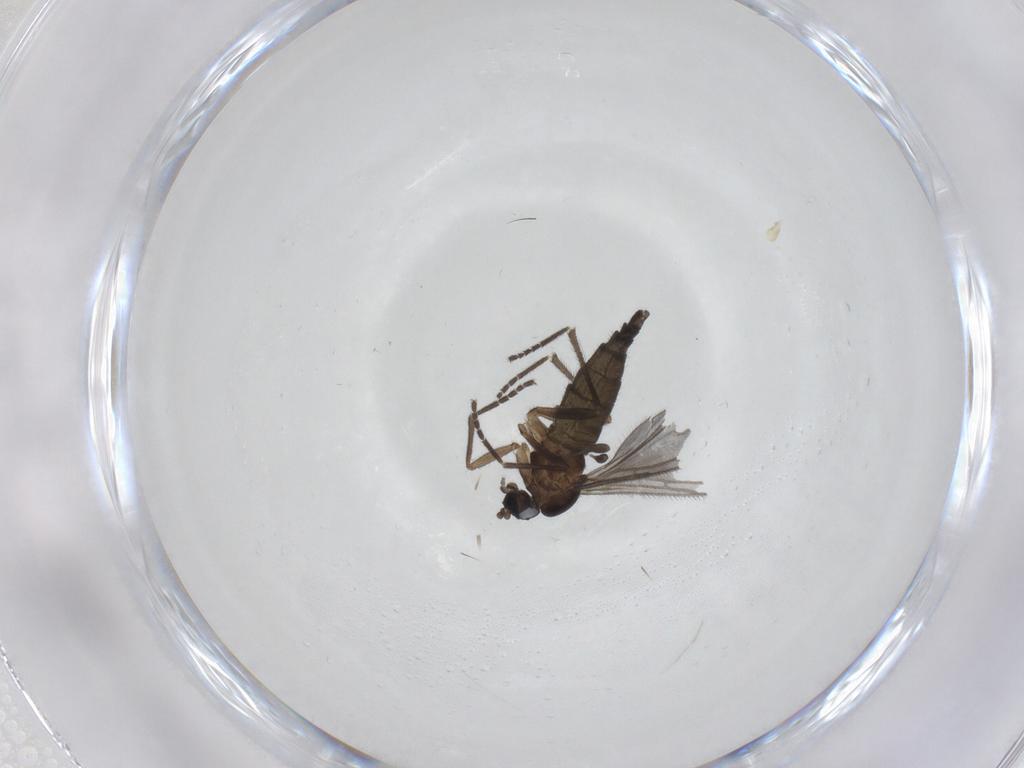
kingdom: Animalia
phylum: Arthropoda
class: Insecta
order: Diptera
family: Sciaridae
